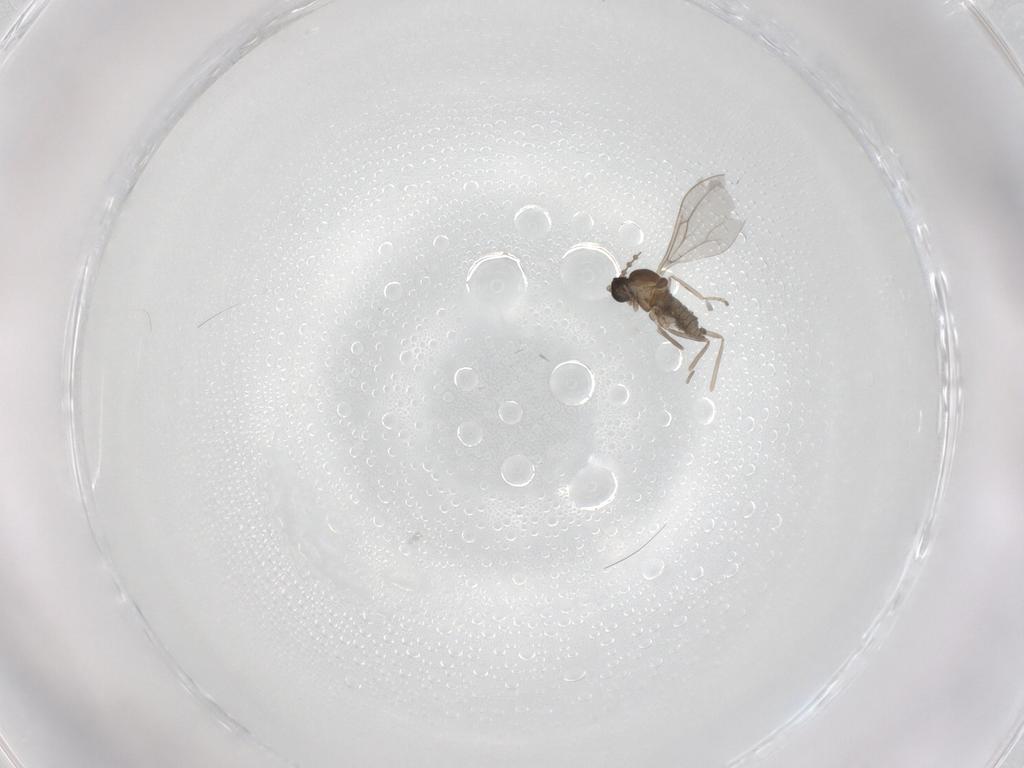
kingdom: Animalia
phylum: Arthropoda
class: Insecta
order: Diptera
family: Cecidomyiidae
